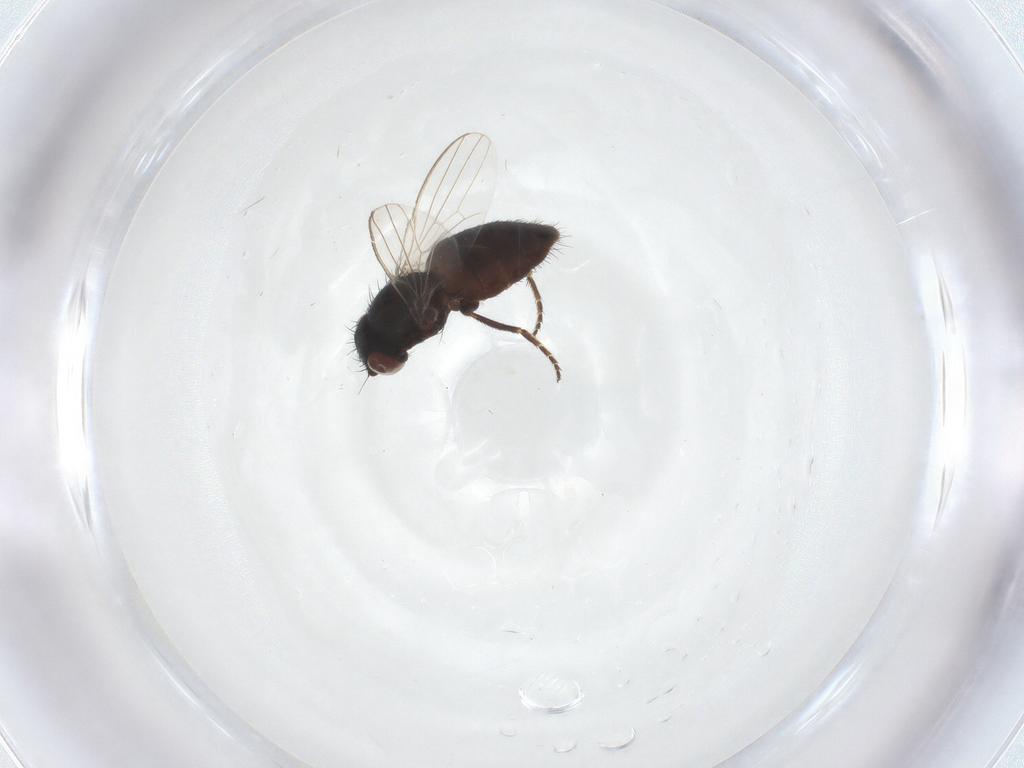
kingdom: Animalia
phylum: Arthropoda
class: Insecta
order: Diptera
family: Milichiidae
